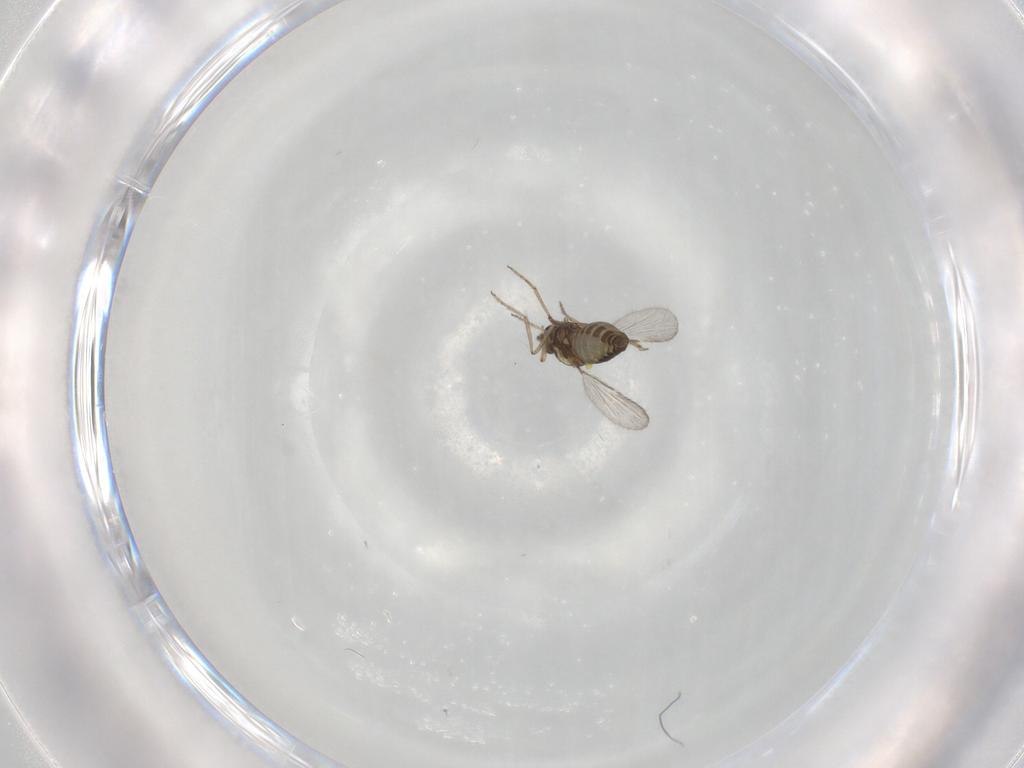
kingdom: Animalia
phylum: Arthropoda
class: Insecta
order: Diptera
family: Ceratopogonidae
